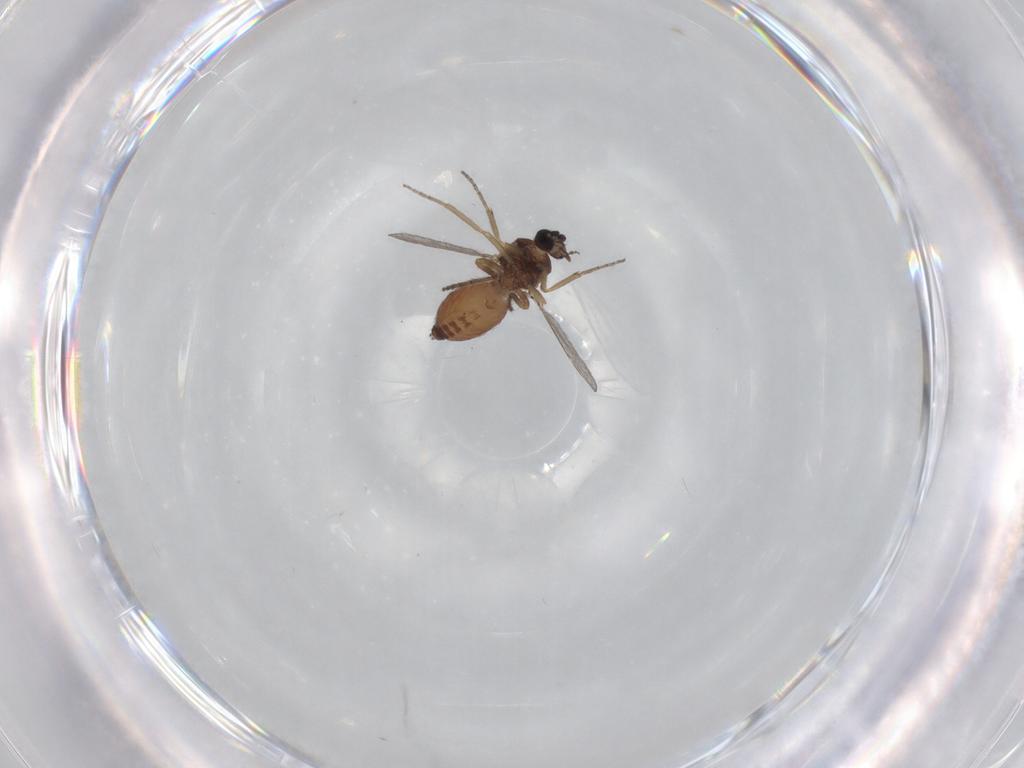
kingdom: Animalia
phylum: Arthropoda
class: Insecta
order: Diptera
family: Ceratopogonidae
